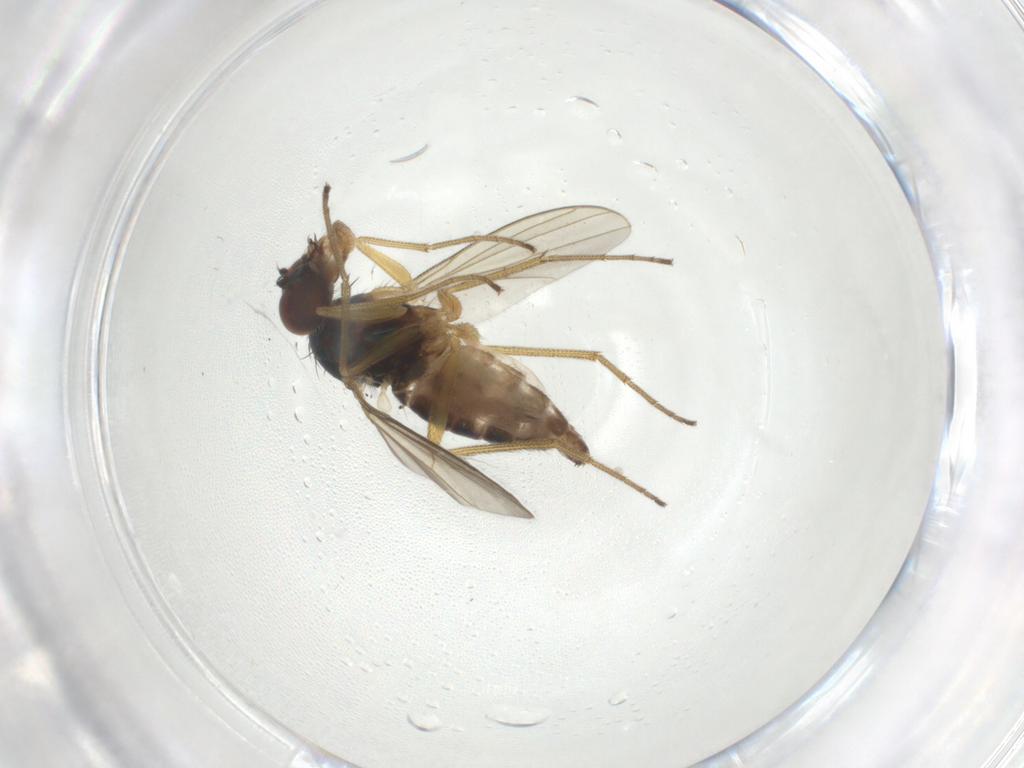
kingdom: Animalia
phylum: Arthropoda
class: Insecta
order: Diptera
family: Dolichopodidae
